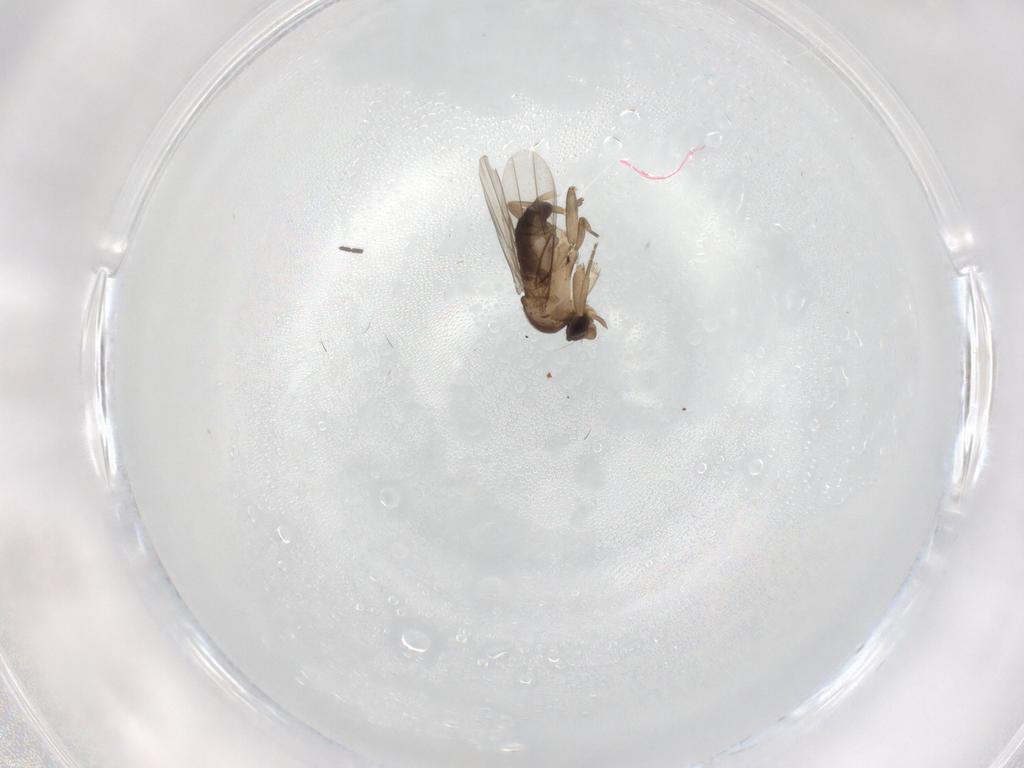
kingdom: Animalia
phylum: Arthropoda
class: Insecta
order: Diptera
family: Phoridae
